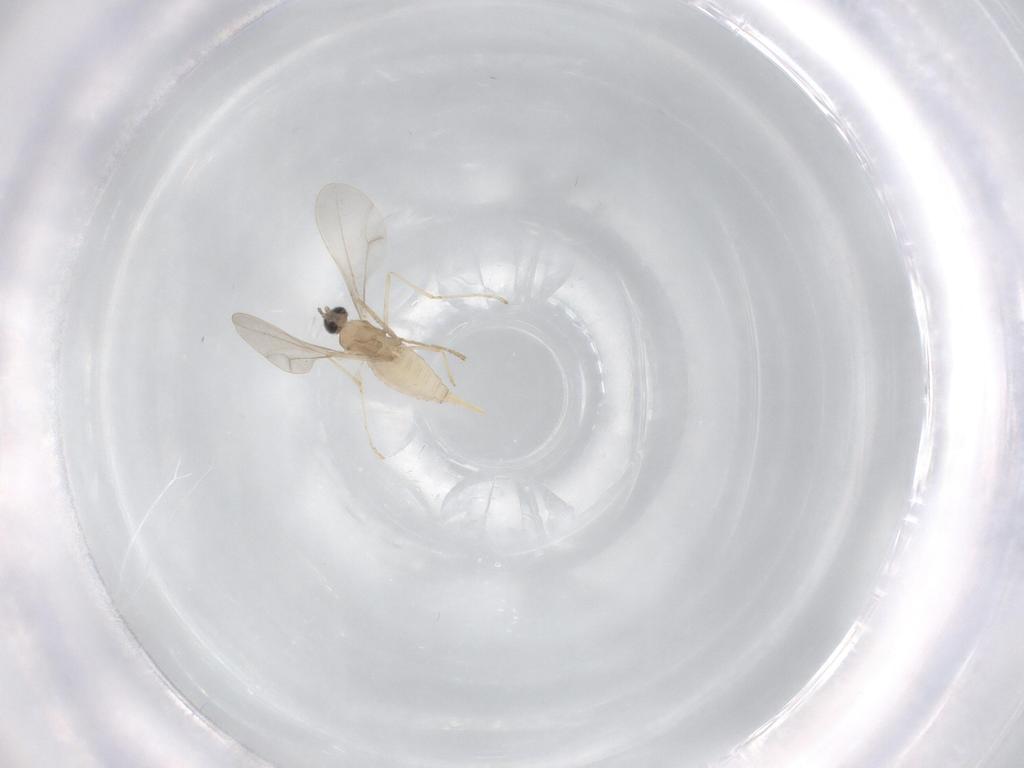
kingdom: Animalia
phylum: Arthropoda
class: Insecta
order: Diptera
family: Cecidomyiidae
